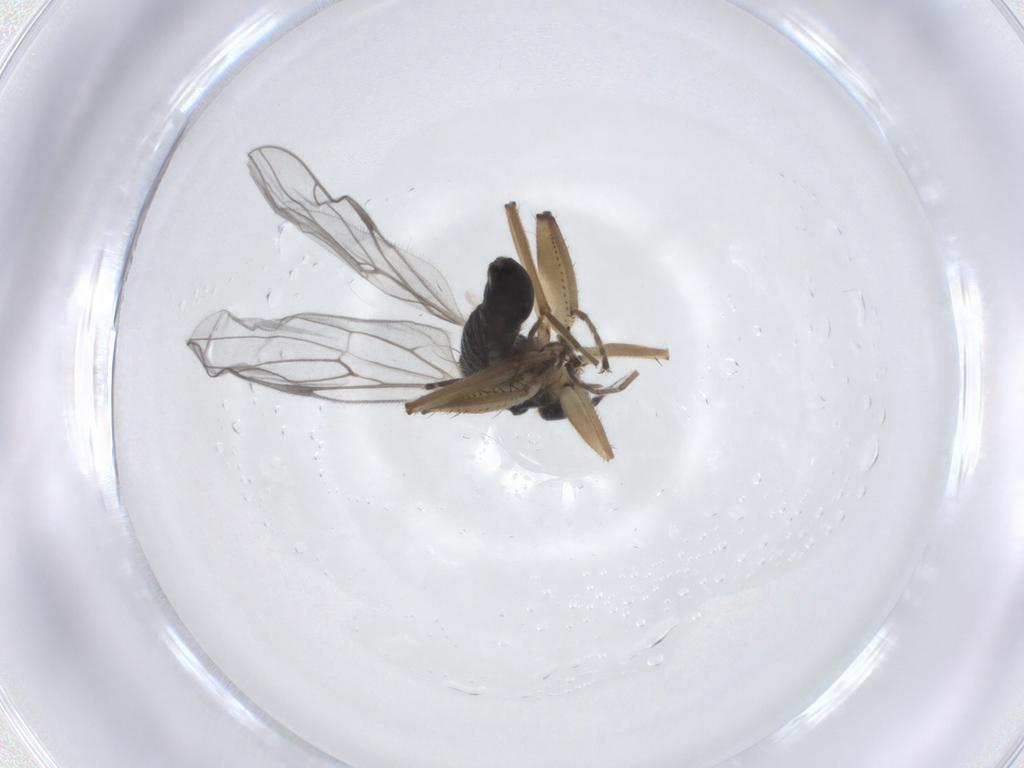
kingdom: Animalia
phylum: Arthropoda
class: Insecta
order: Diptera
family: Hybotidae
